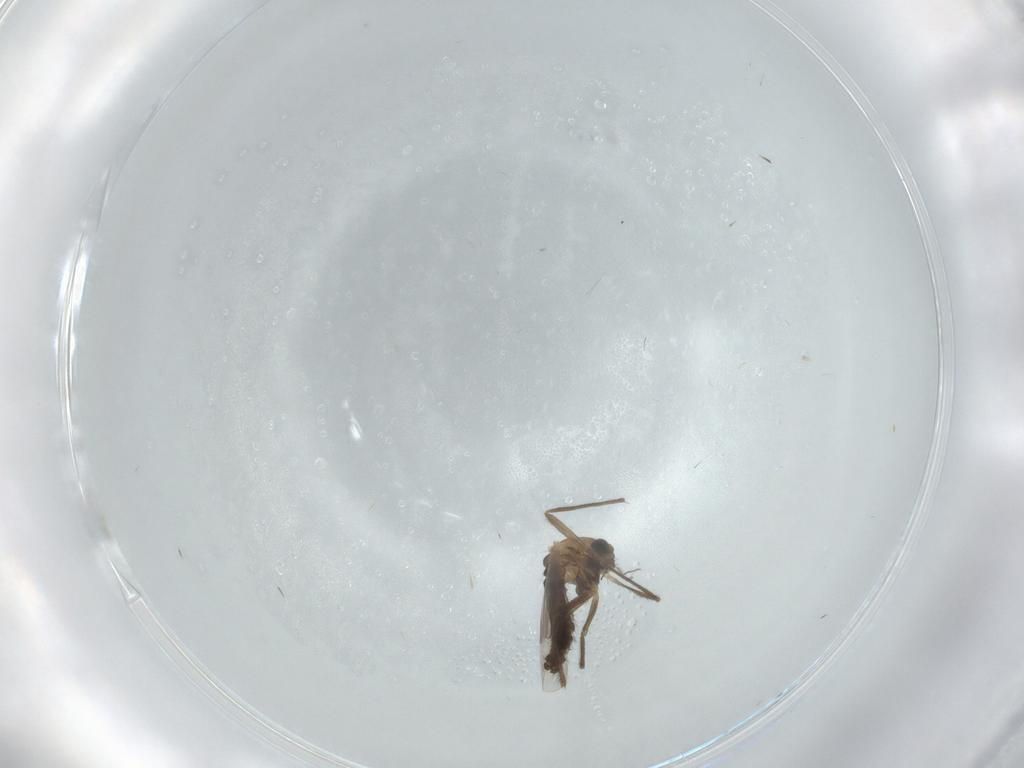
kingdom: Animalia
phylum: Arthropoda
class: Insecta
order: Diptera
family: Chironomidae
